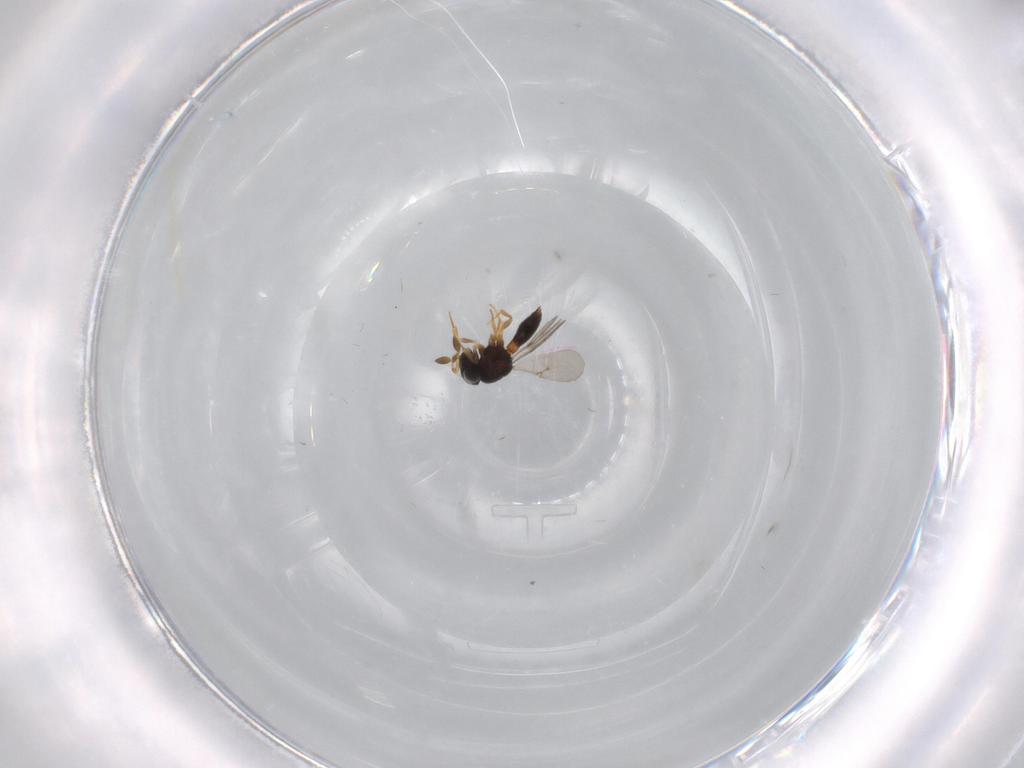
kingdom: Animalia
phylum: Arthropoda
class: Insecta
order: Hymenoptera
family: Scelionidae
